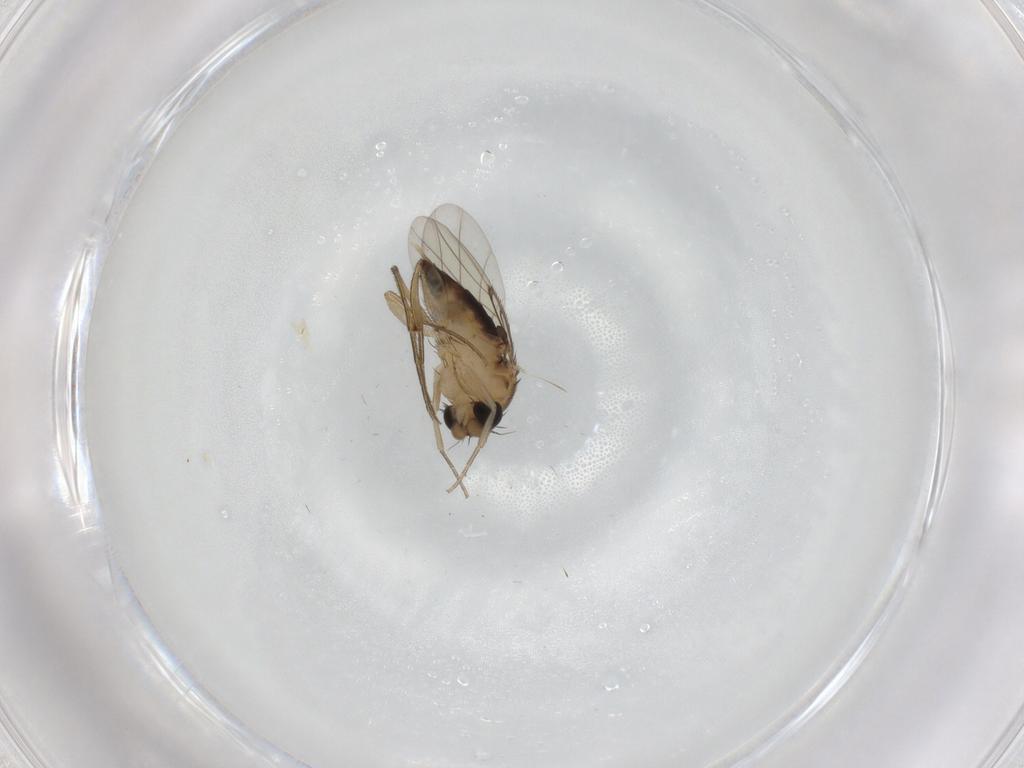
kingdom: Animalia
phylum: Arthropoda
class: Insecta
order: Diptera
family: Phoridae
